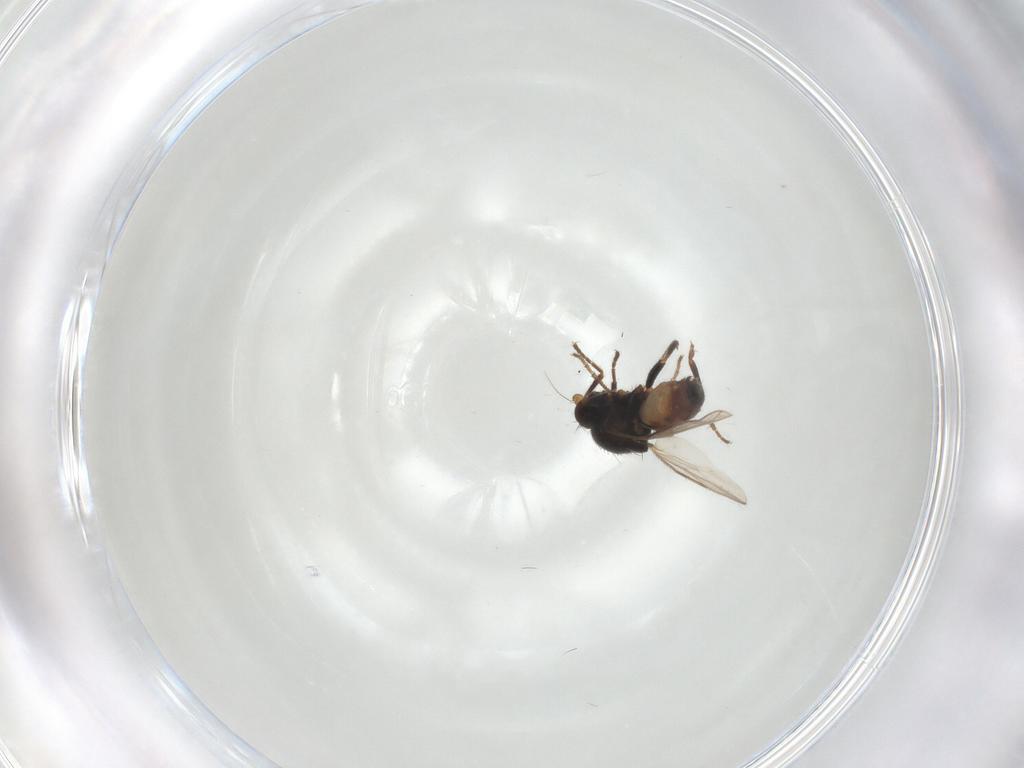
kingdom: Animalia
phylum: Arthropoda
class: Insecta
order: Diptera
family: Sphaeroceridae
